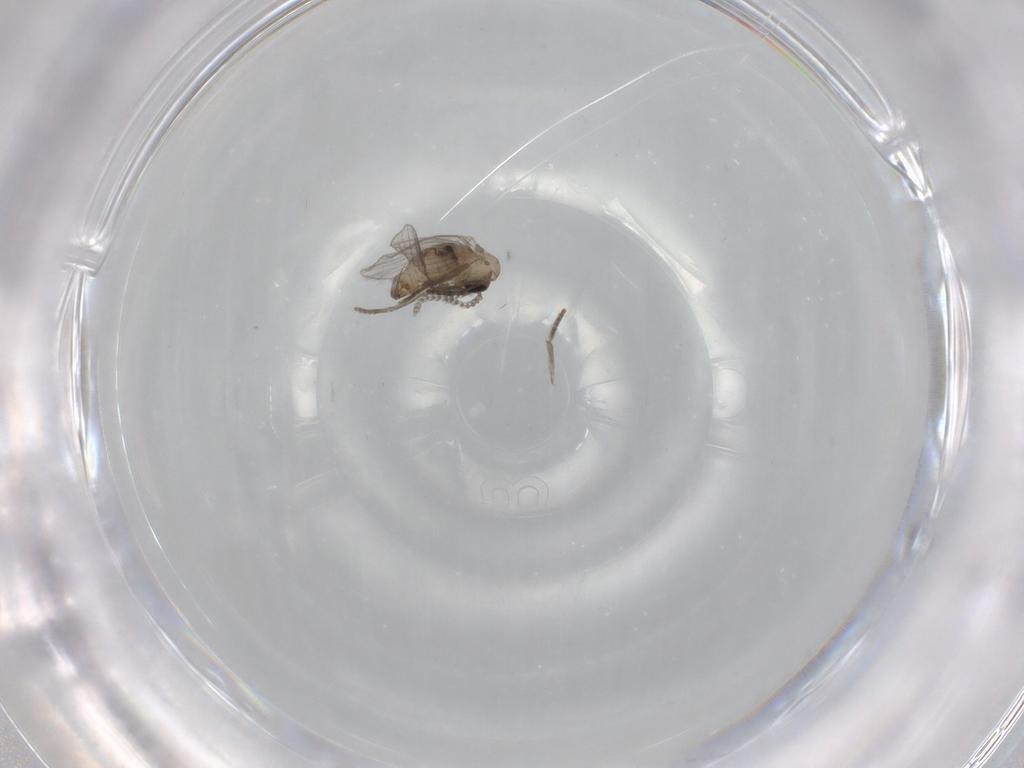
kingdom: Animalia
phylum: Arthropoda
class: Insecta
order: Diptera
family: Psychodidae
